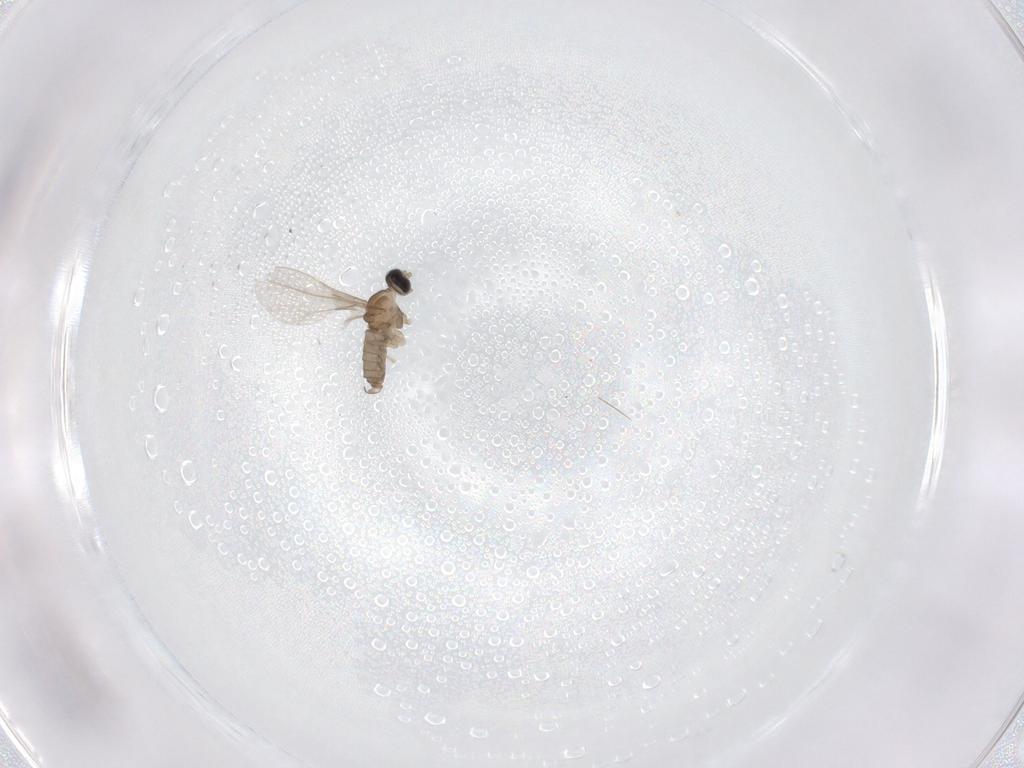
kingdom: Animalia
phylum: Arthropoda
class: Insecta
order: Diptera
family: Cecidomyiidae
